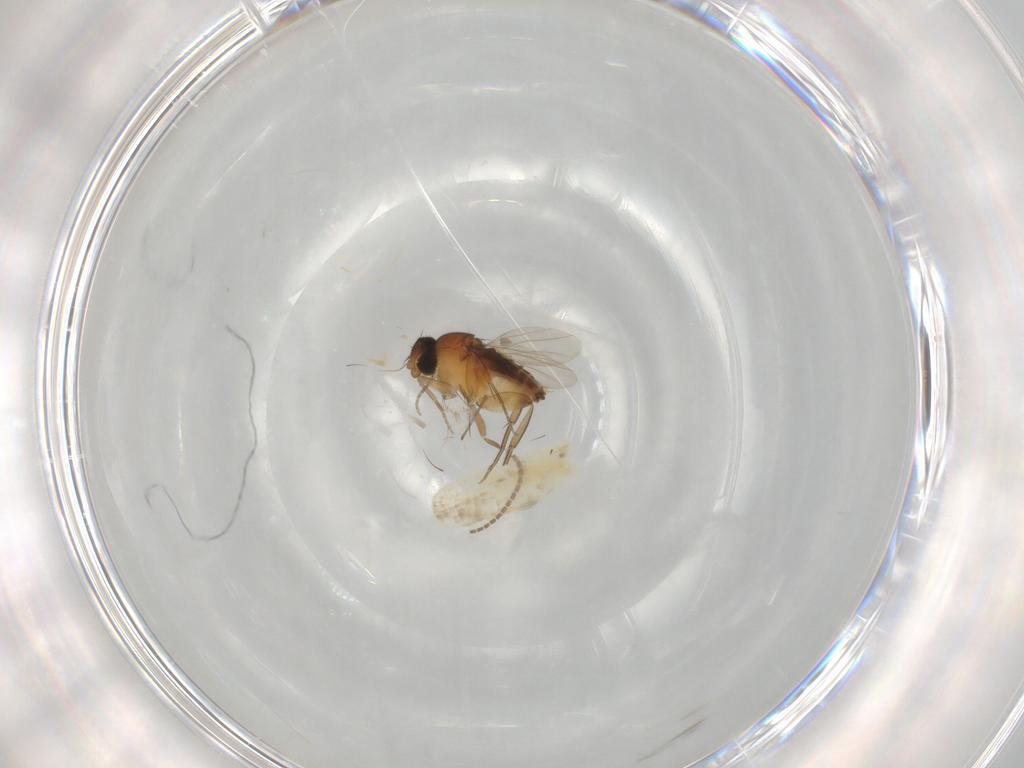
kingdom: Animalia
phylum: Arthropoda
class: Insecta
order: Diptera
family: Phoridae
